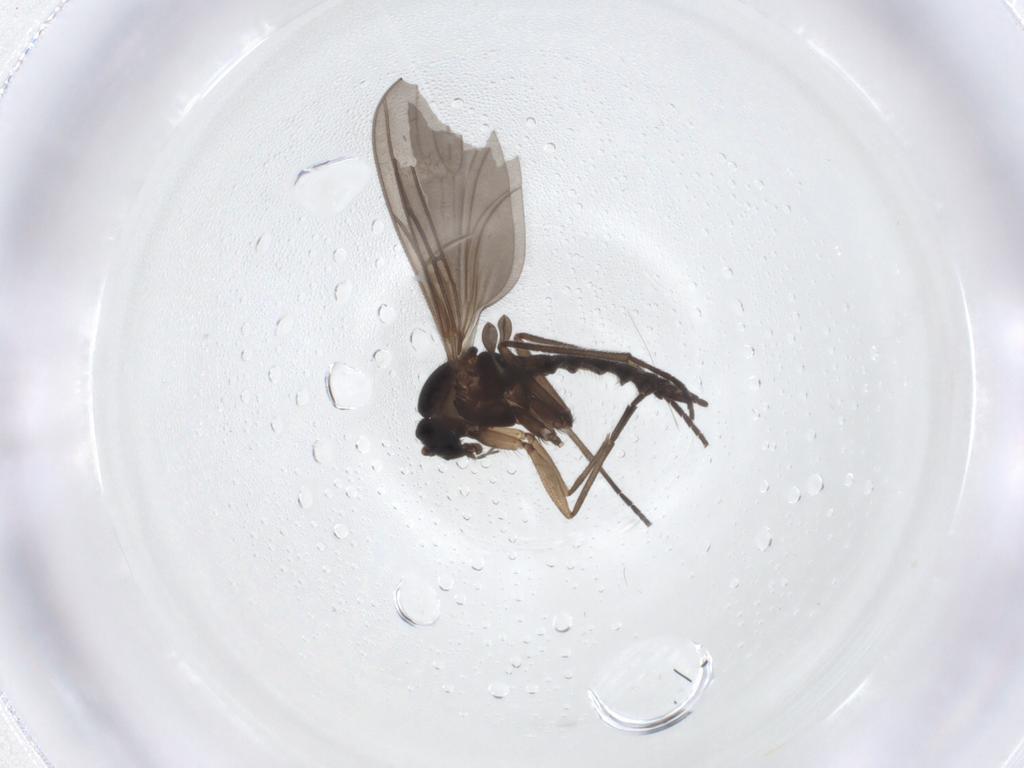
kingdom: Animalia
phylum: Arthropoda
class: Insecta
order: Diptera
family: Sciaridae
